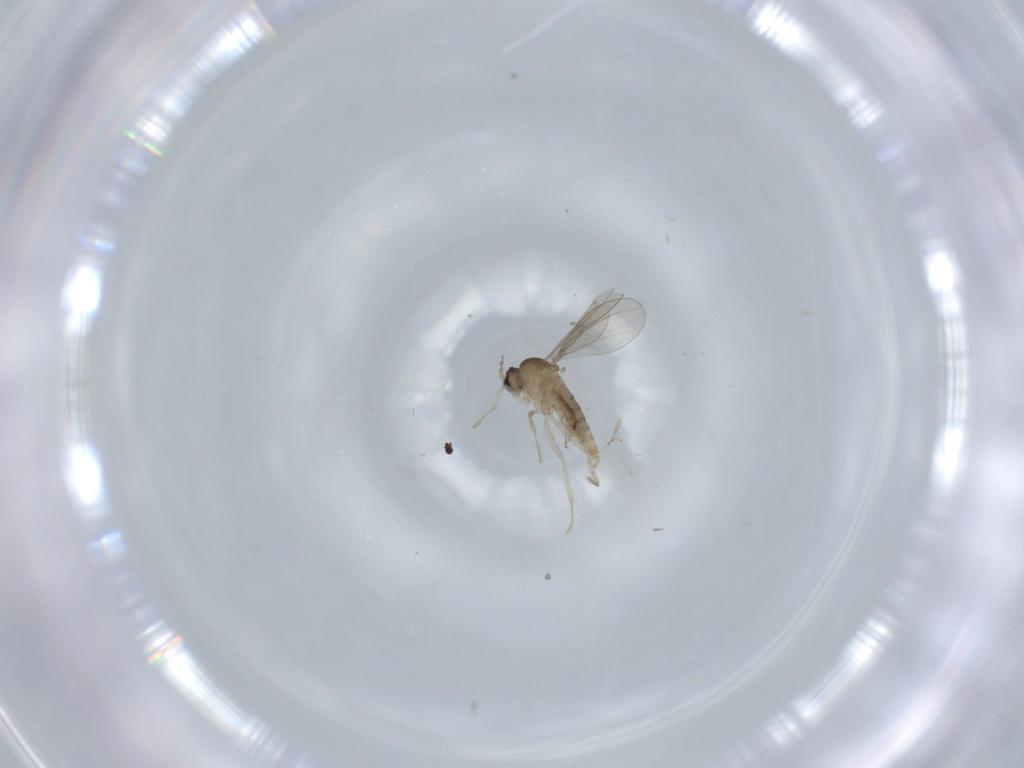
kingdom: Animalia
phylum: Arthropoda
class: Insecta
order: Diptera
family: Cecidomyiidae
